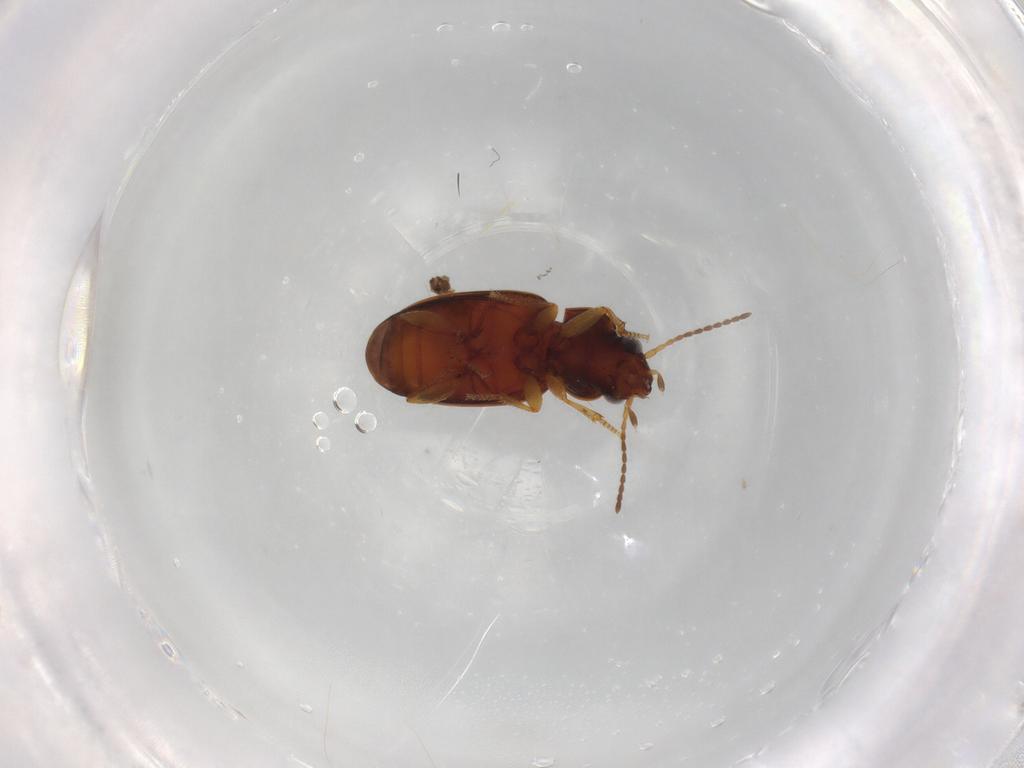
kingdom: Animalia
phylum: Arthropoda
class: Insecta
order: Coleoptera
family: Carabidae
